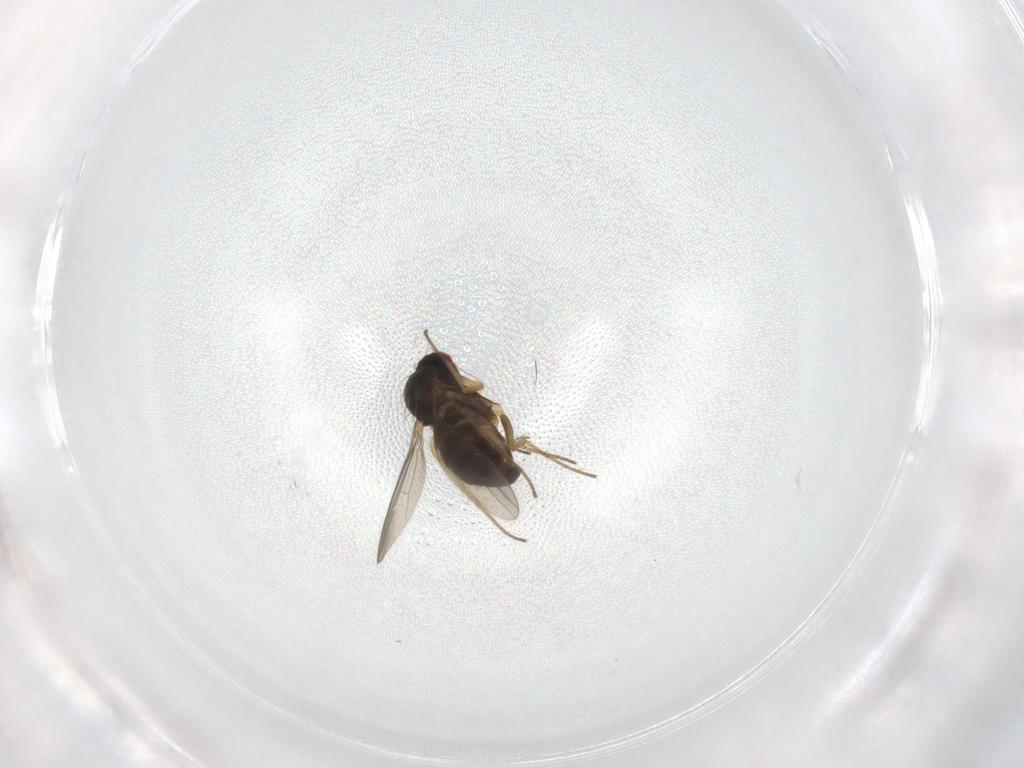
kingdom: Animalia
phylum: Arthropoda
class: Insecta
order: Diptera
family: Dolichopodidae
